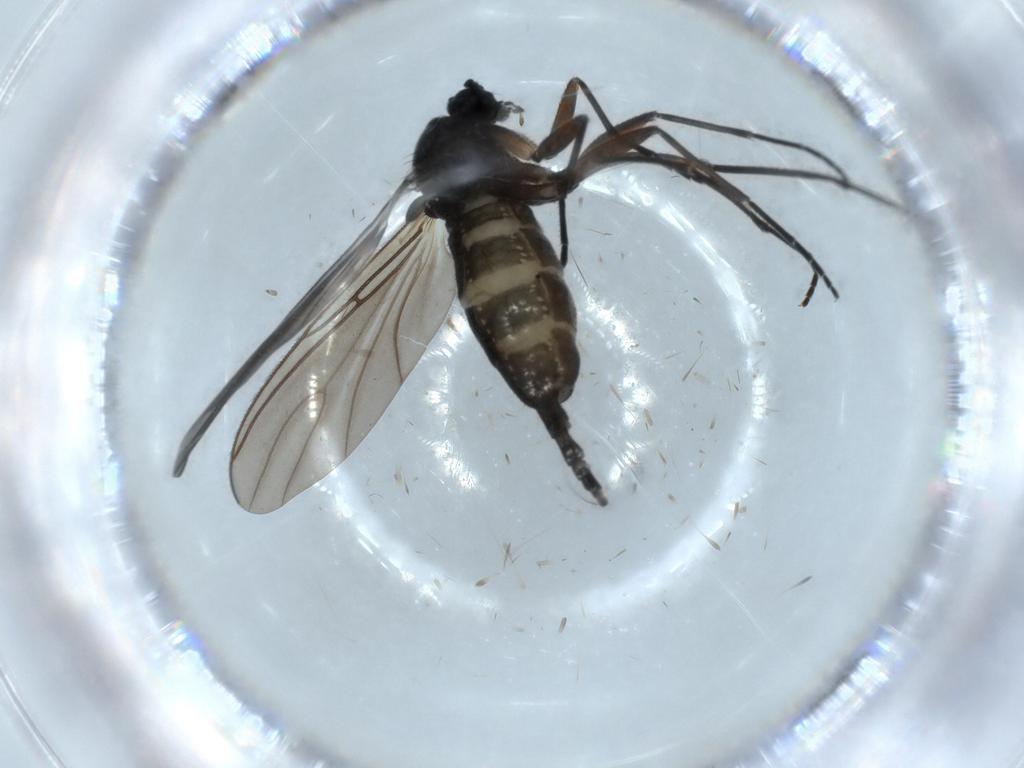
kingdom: Animalia
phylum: Arthropoda
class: Insecta
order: Diptera
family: Sciaridae
